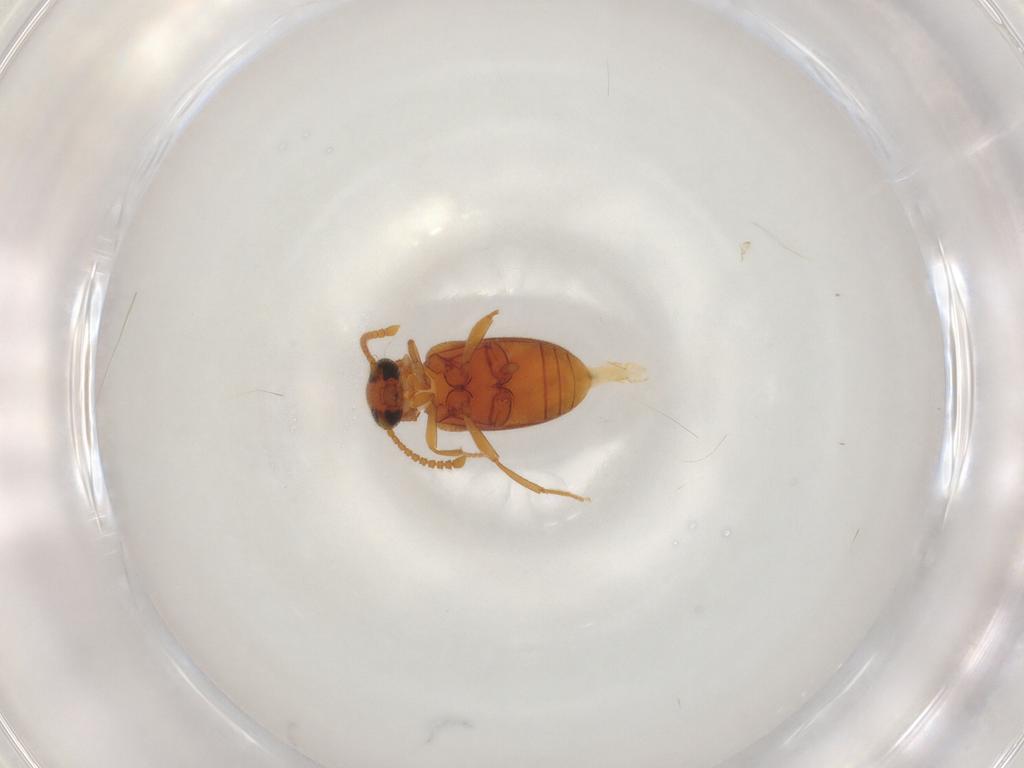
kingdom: Animalia
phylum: Arthropoda
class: Insecta
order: Coleoptera
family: Aderidae
